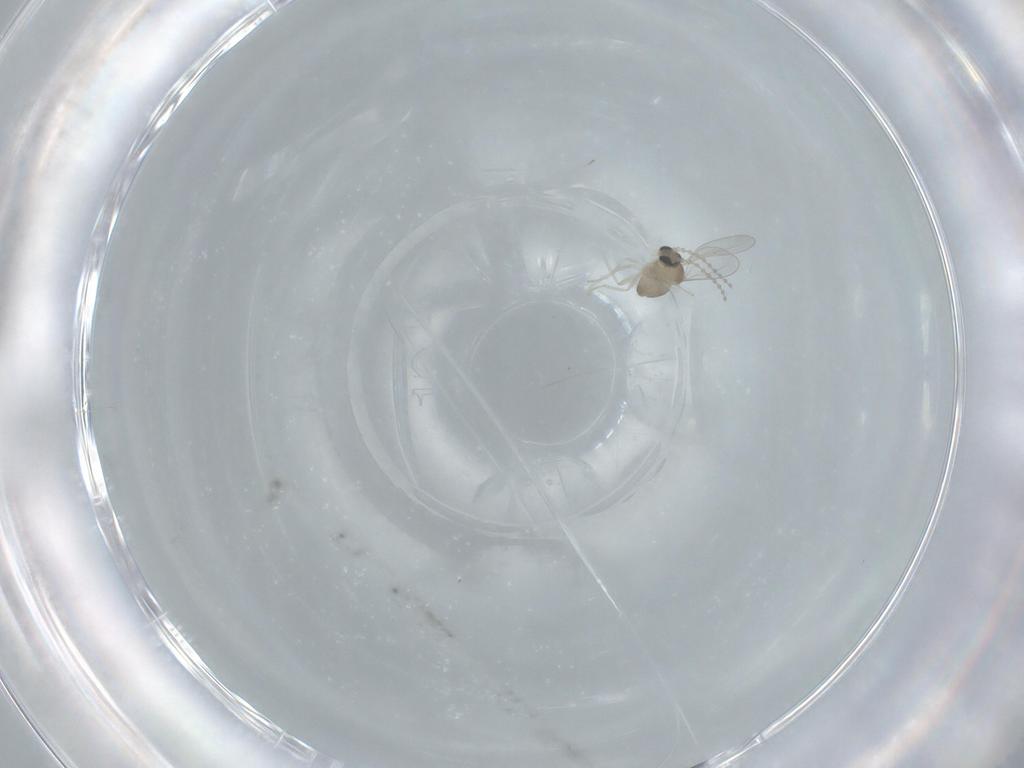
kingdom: Animalia
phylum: Arthropoda
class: Insecta
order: Diptera
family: Cecidomyiidae
